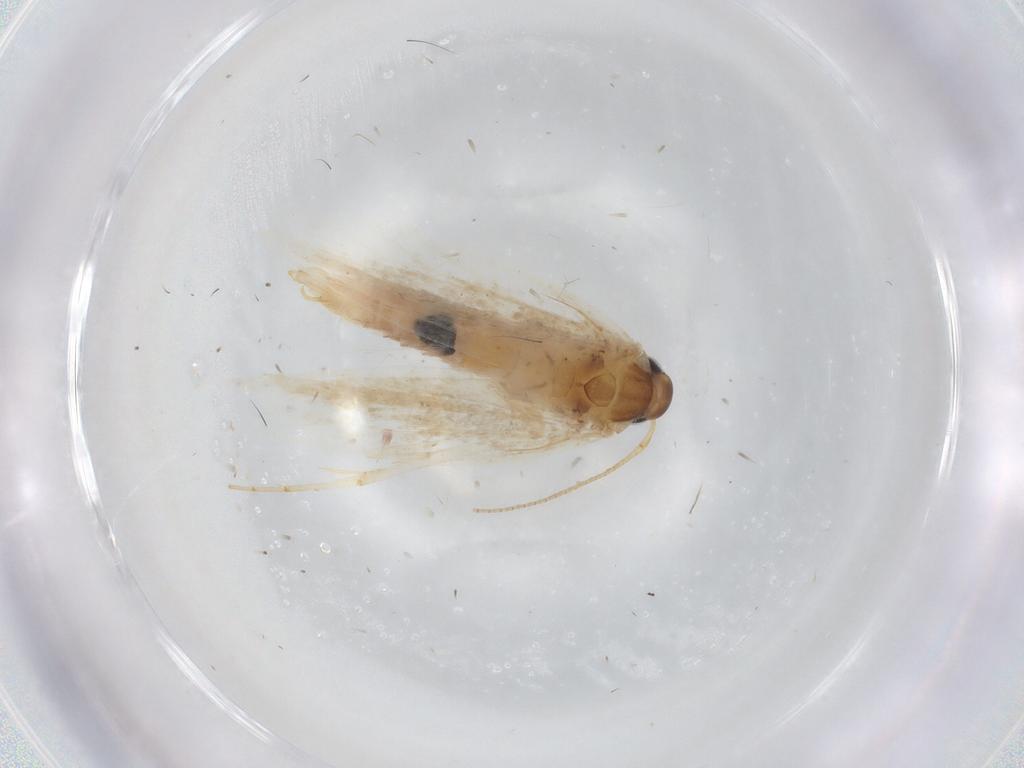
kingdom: Animalia
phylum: Arthropoda
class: Insecta
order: Lepidoptera
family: Gelechiidae
